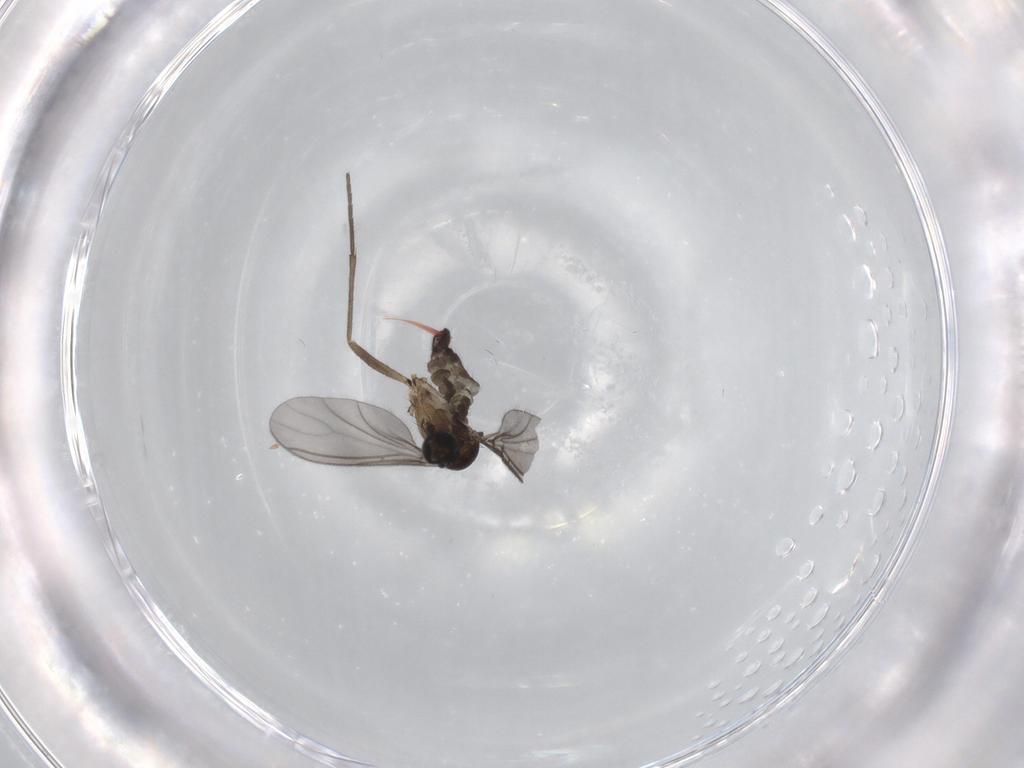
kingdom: Animalia
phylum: Arthropoda
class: Insecta
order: Diptera
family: Sciaridae
